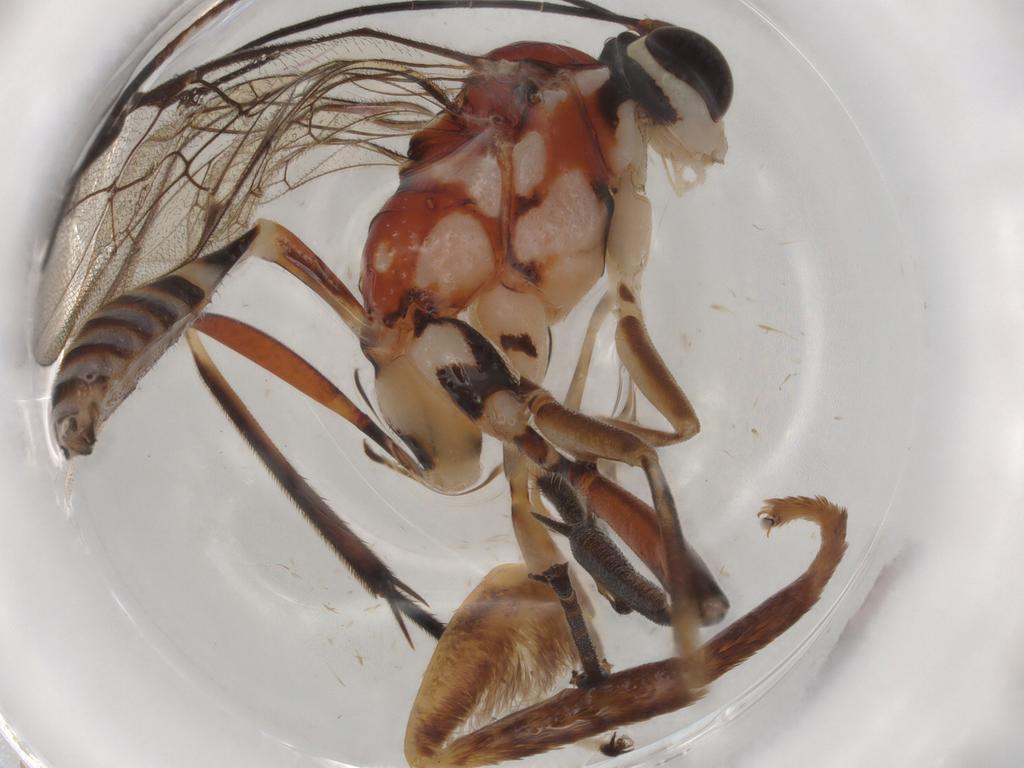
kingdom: Animalia
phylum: Arthropoda
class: Insecta
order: Hymenoptera
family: Ichneumonidae
